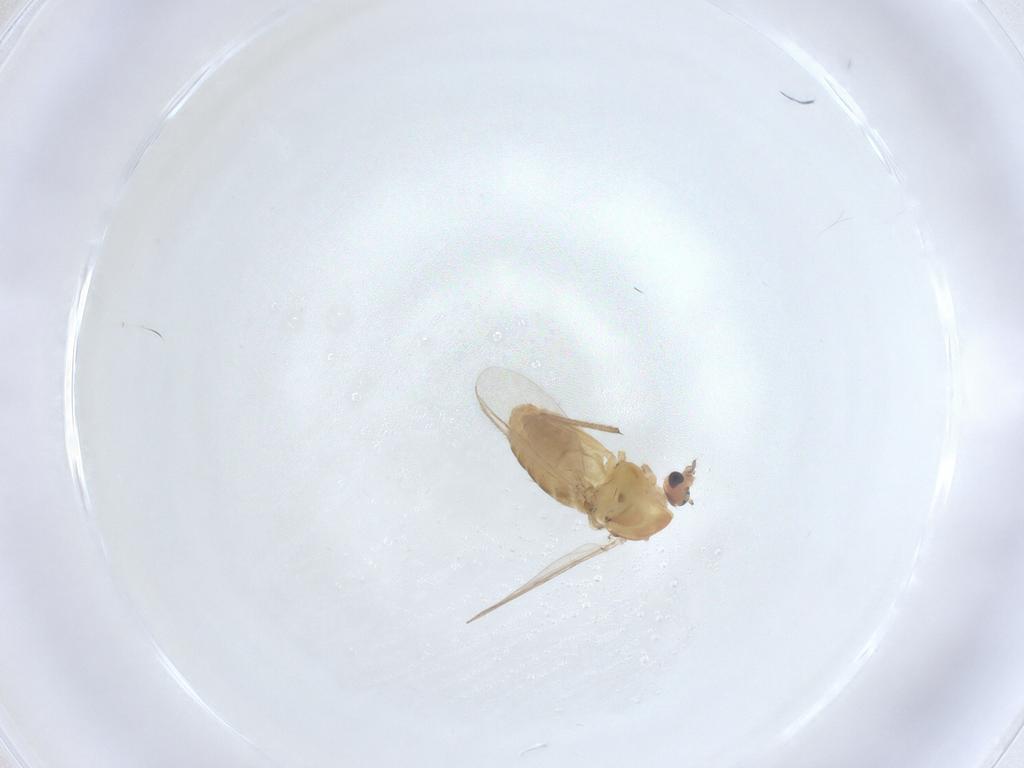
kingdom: Animalia
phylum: Arthropoda
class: Insecta
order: Diptera
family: Chironomidae
